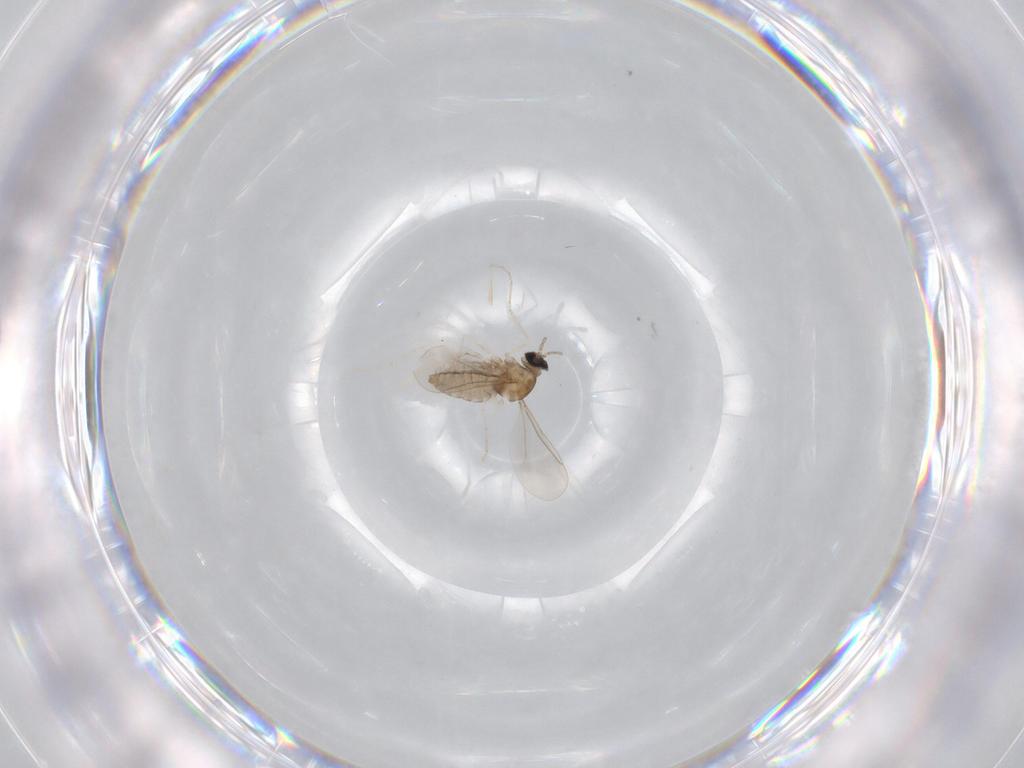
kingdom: Animalia
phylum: Arthropoda
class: Insecta
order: Diptera
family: Cecidomyiidae
